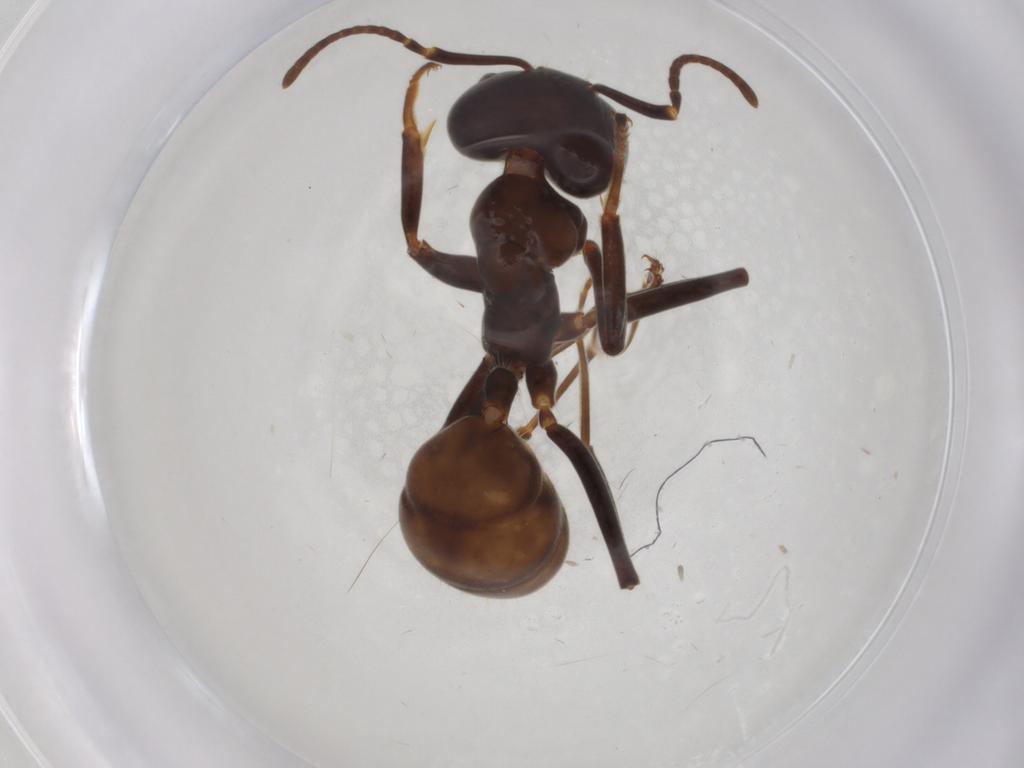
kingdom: Animalia
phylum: Arthropoda
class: Insecta
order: Hymenoptera
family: Formicidae
